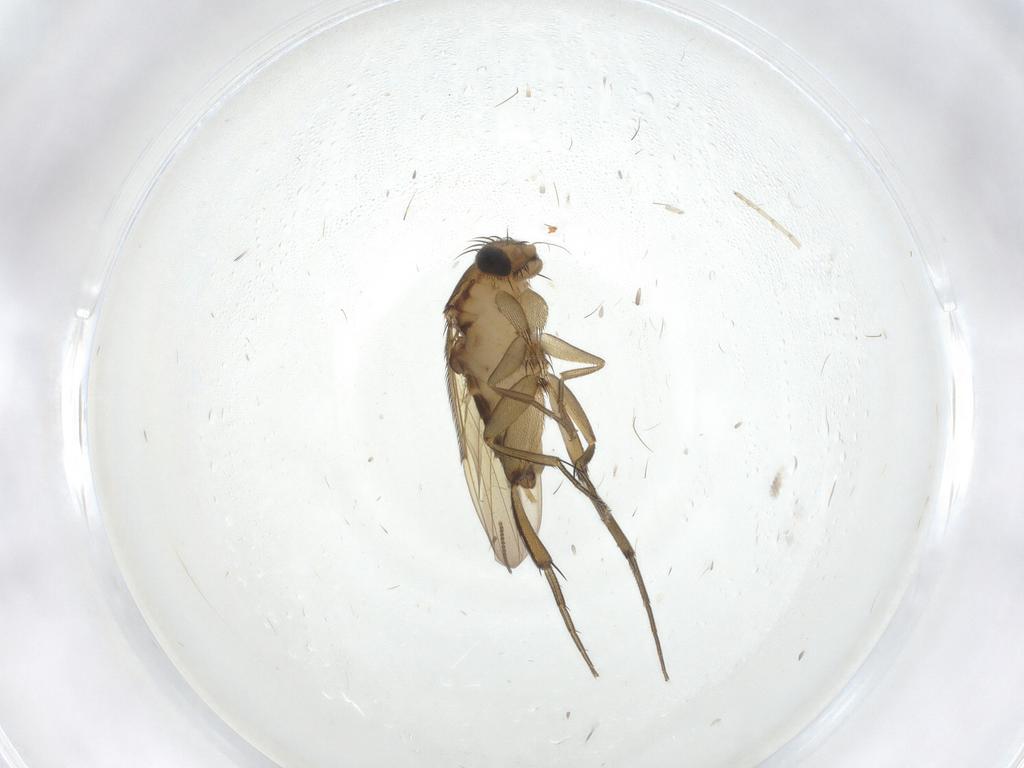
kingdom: Animalia
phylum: Arthropoda
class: Insecta
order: Diptera
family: Phoridae
